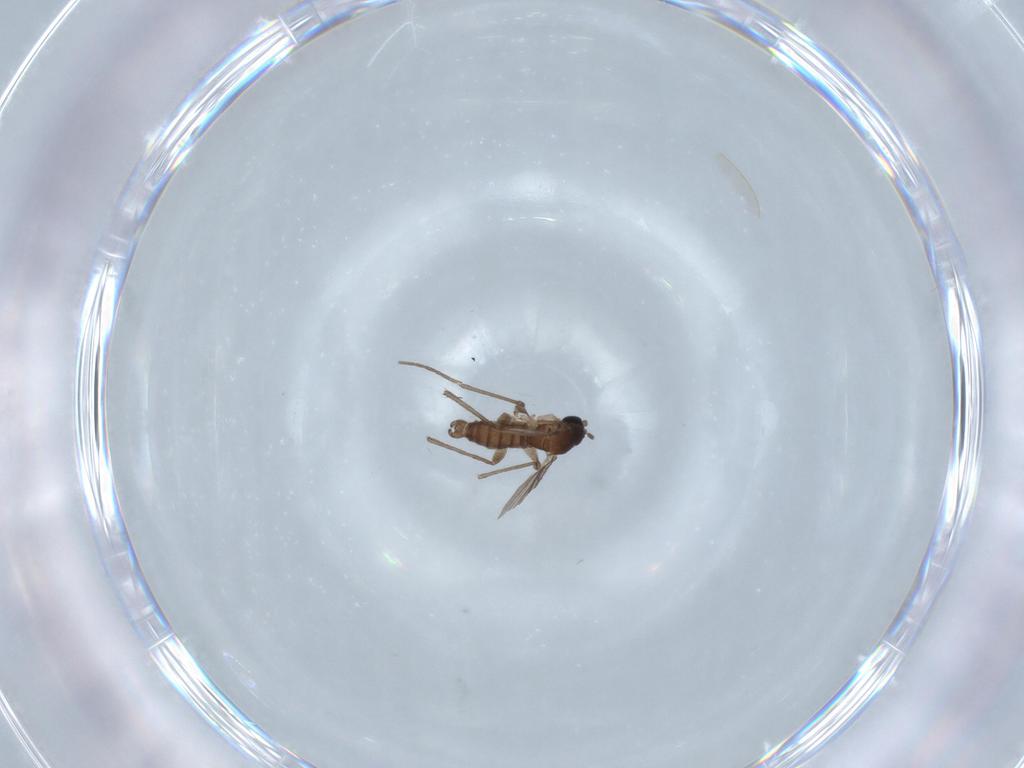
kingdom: Animalia
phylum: Arthropoda
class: Insecta
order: Diptera
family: Sciaridae
